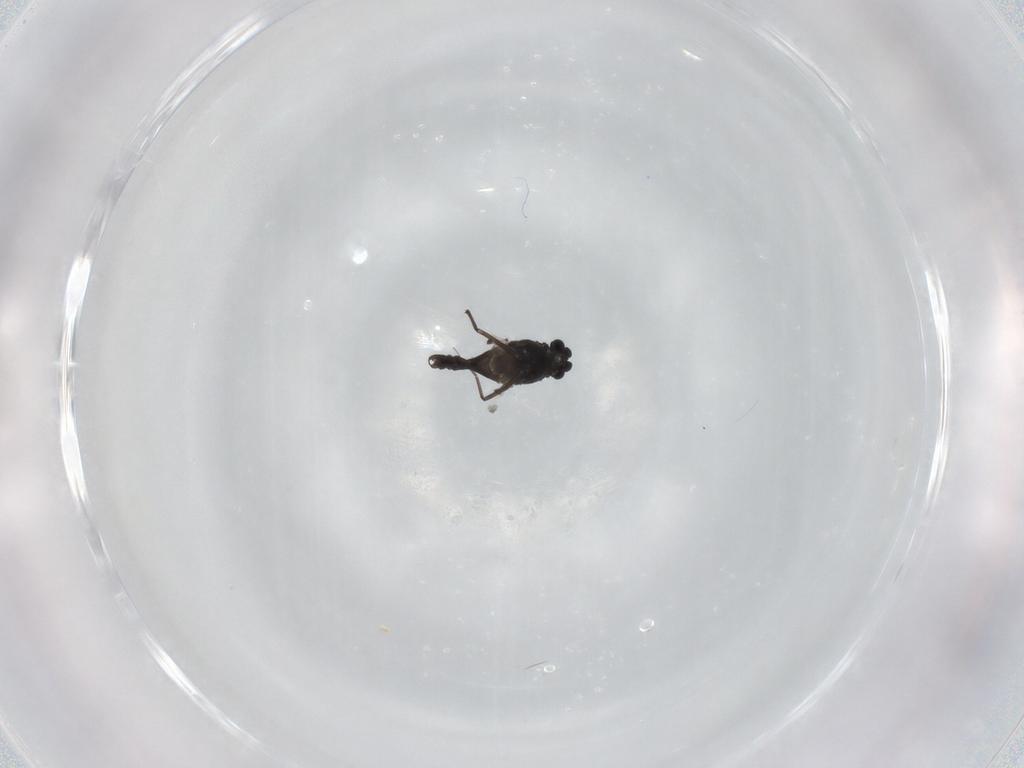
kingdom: Animalia
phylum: Arthropoda
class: Insecta
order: Diptera
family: Chironomidae
